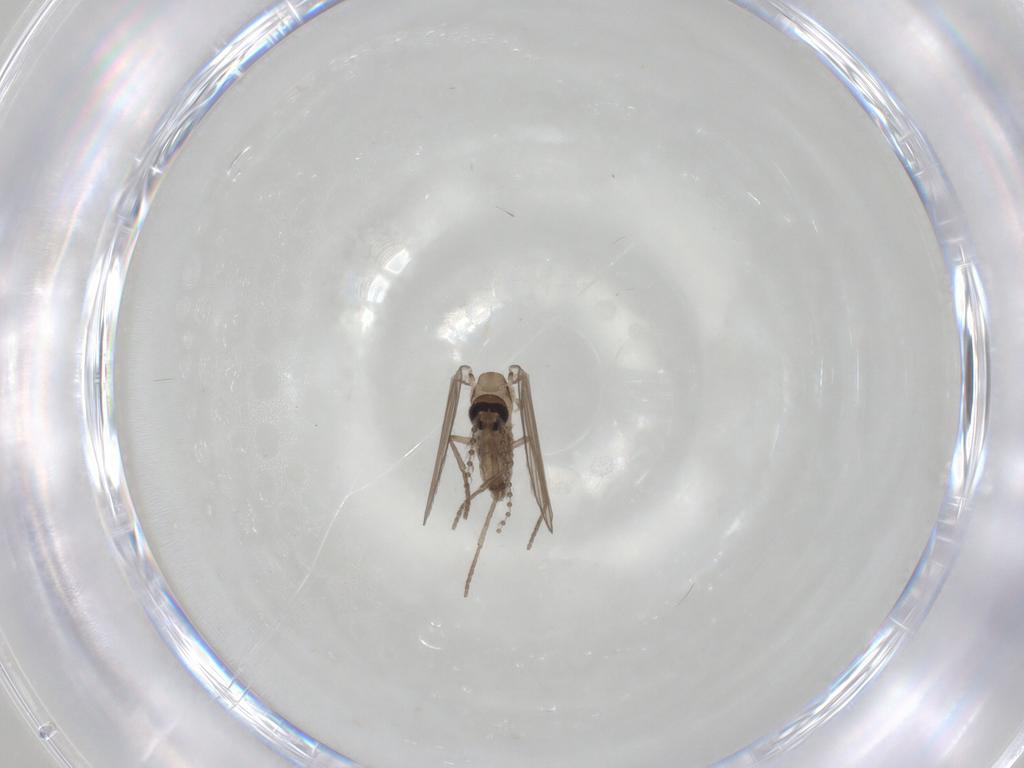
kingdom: Animalia
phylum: Arthropoda
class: Insecta
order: Diptera
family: Psychodidae
